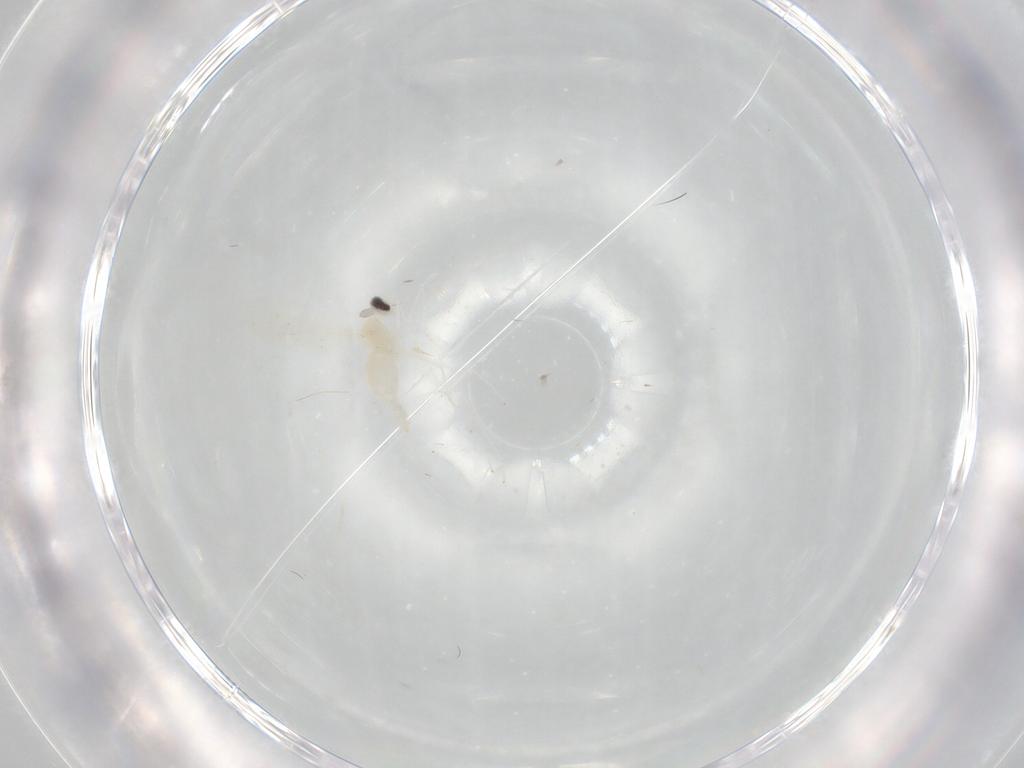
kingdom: Animalia
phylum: Arthropoda
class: Insecta
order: Diptera
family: Cecidomyiidae
